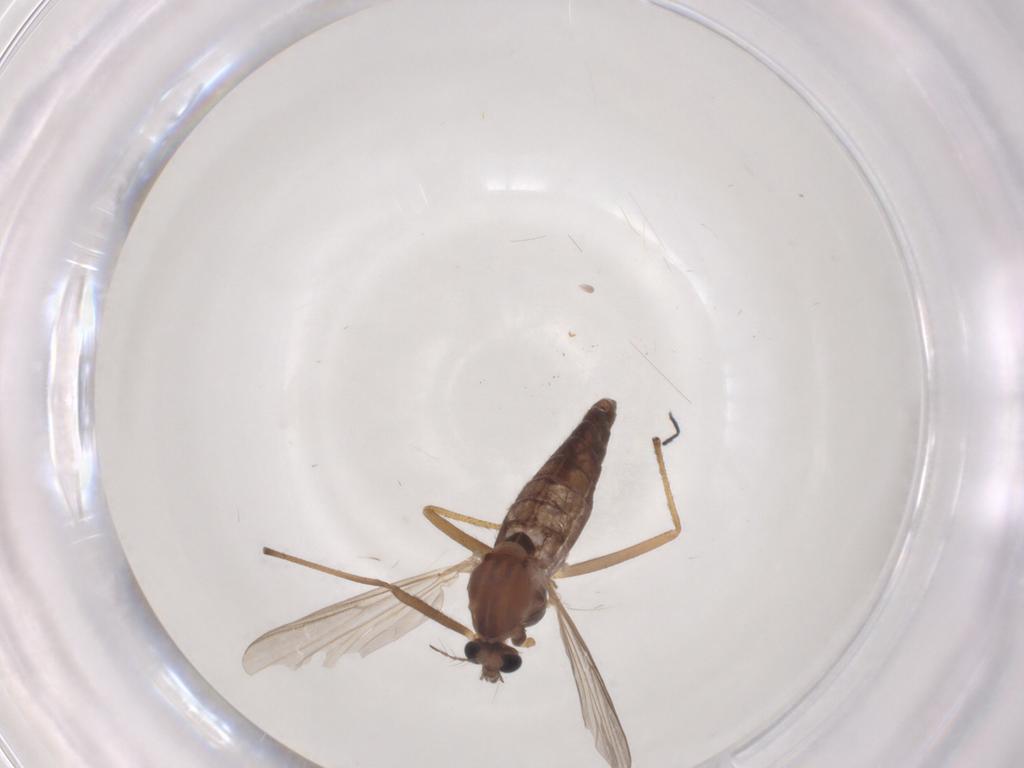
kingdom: Animalia
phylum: Arthropoda
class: Insecta
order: Diptera
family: Chironomidae
